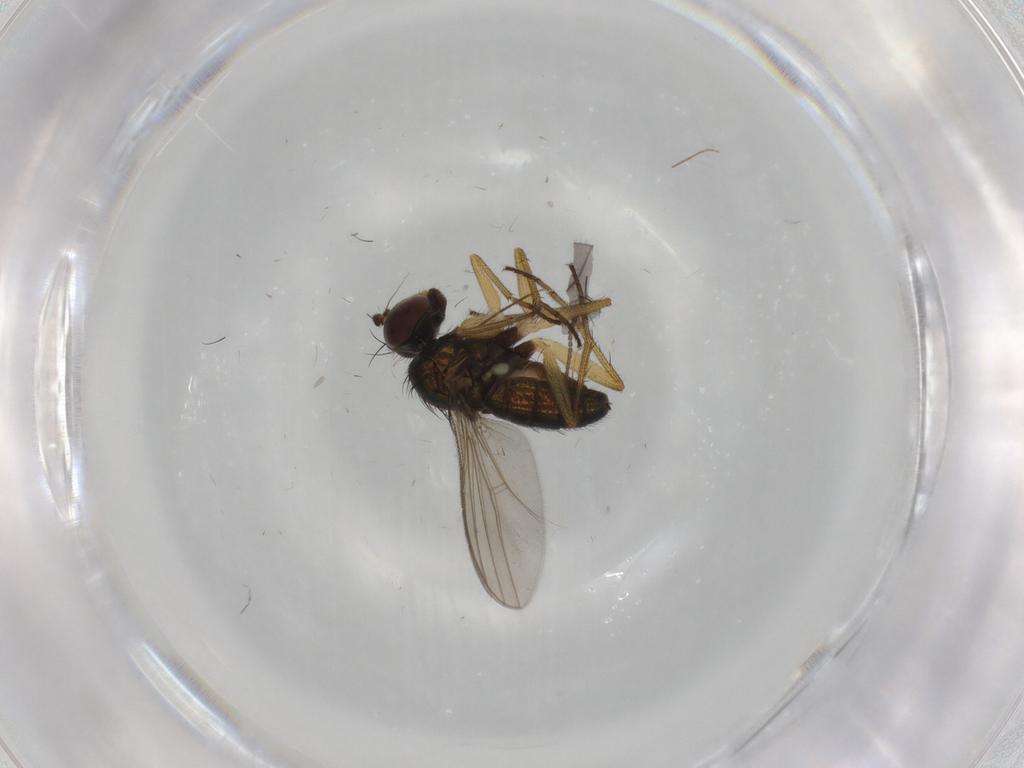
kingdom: Animalia
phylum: Arthropoda
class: Insecta
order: Diptera
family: Chironomidae
